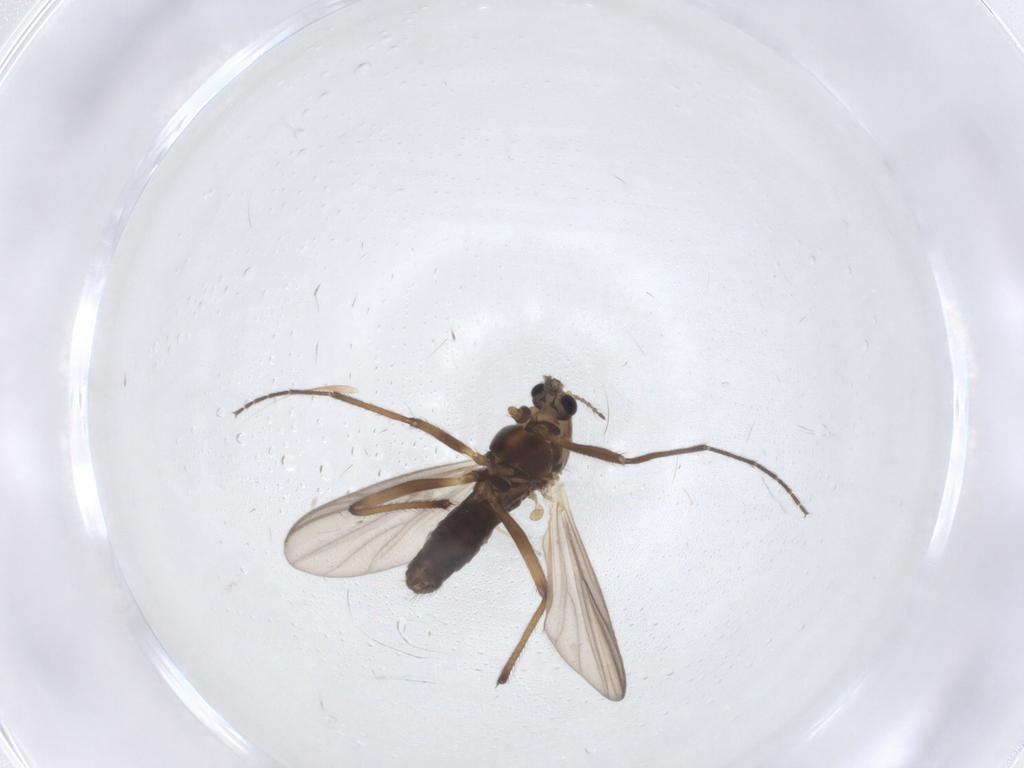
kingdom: Animalia
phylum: Arthropoda
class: Insecta
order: Diptera
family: Chironomidae
